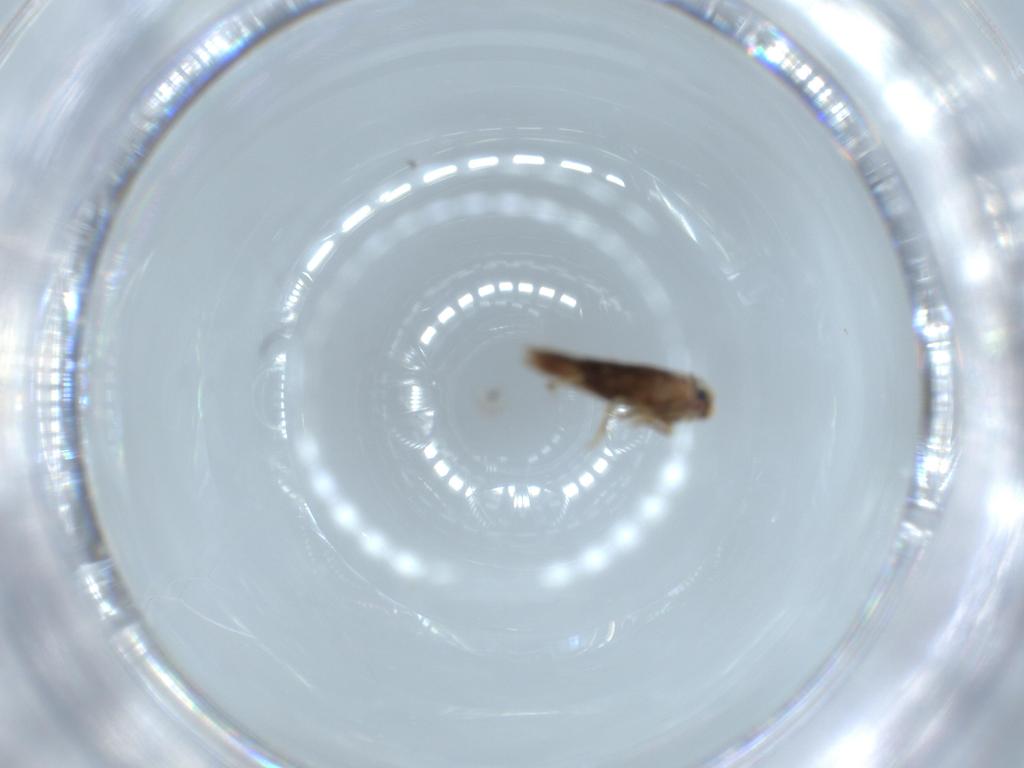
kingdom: Animalia
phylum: Arthropoda
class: Insecta
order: Lepidoptera
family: Nepticulidae
